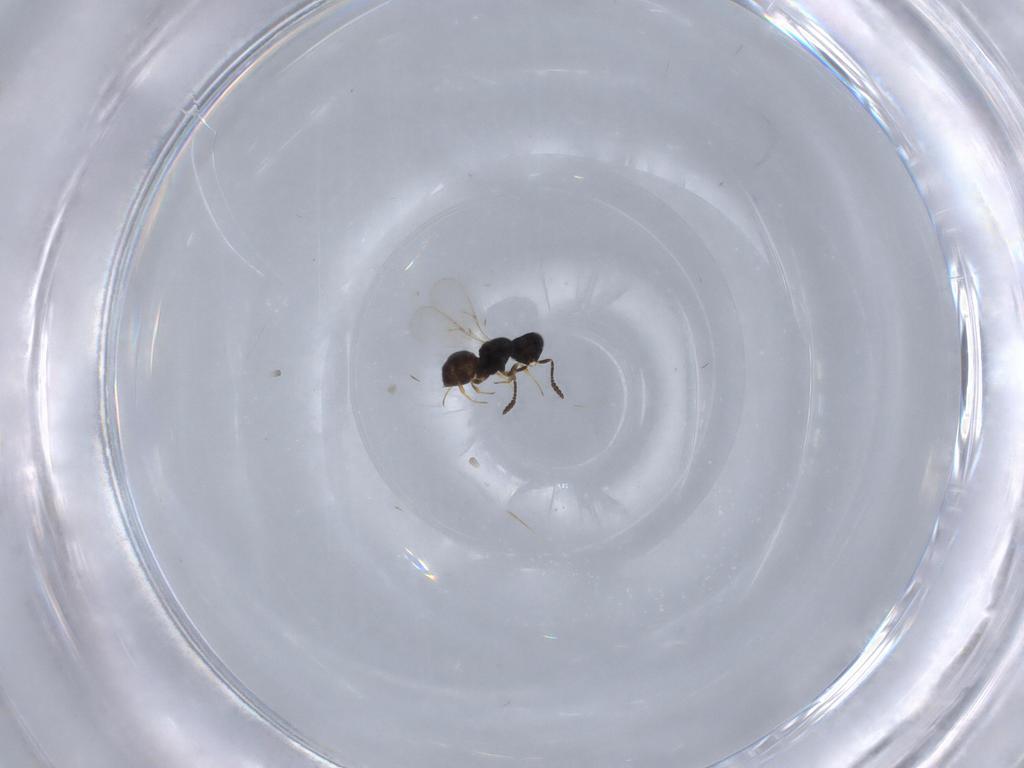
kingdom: Animalia
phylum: Arthropoda
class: Insecta
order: Hymenoptera
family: Scelionidae
